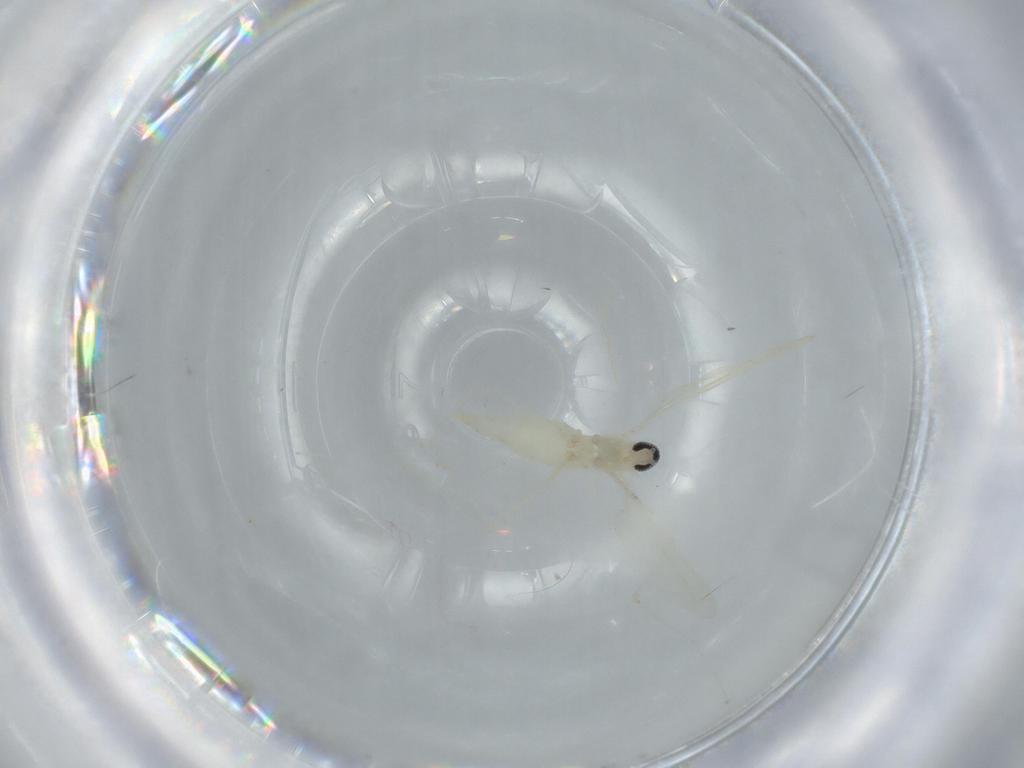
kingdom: Animalia
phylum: Arthropoda
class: Insecta
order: Diptera
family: Cecidomyiidae
